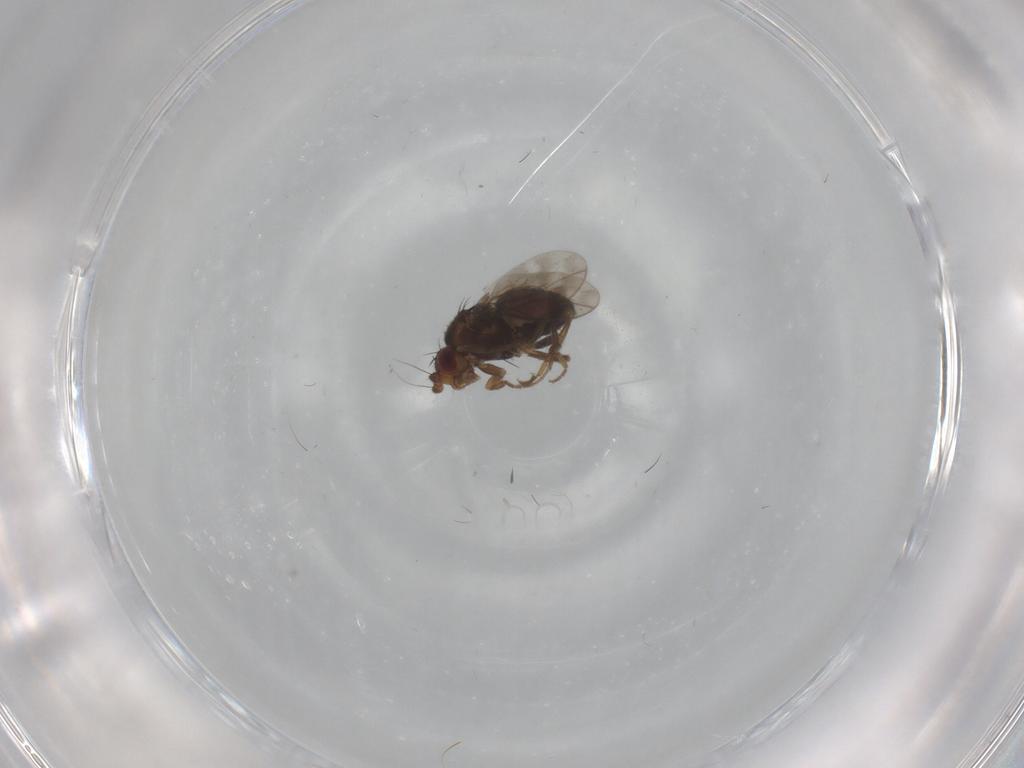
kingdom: Animalia
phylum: Arthropoda
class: Insecta
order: Diptera
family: Sphaeroceridae
